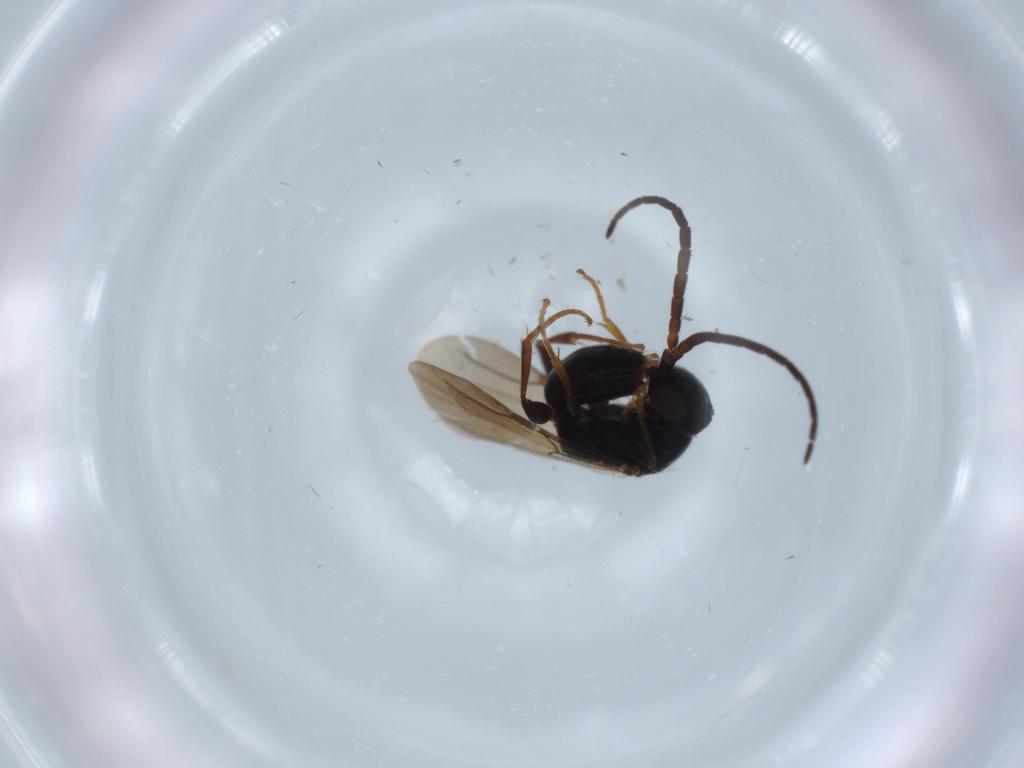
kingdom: Animalia
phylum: Arthropoda
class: Insecta
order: Hymenoptera
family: Bethylidae
